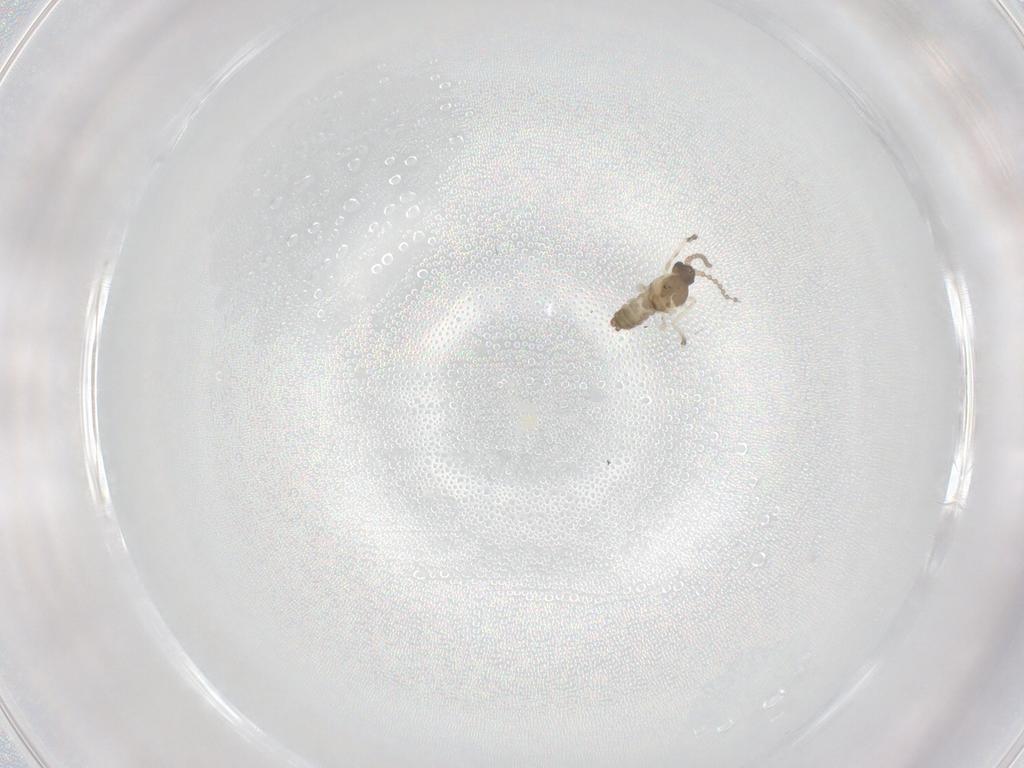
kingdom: Animalia
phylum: Arthropoda
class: Insecta
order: Diptera
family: Cecidomyiidae
